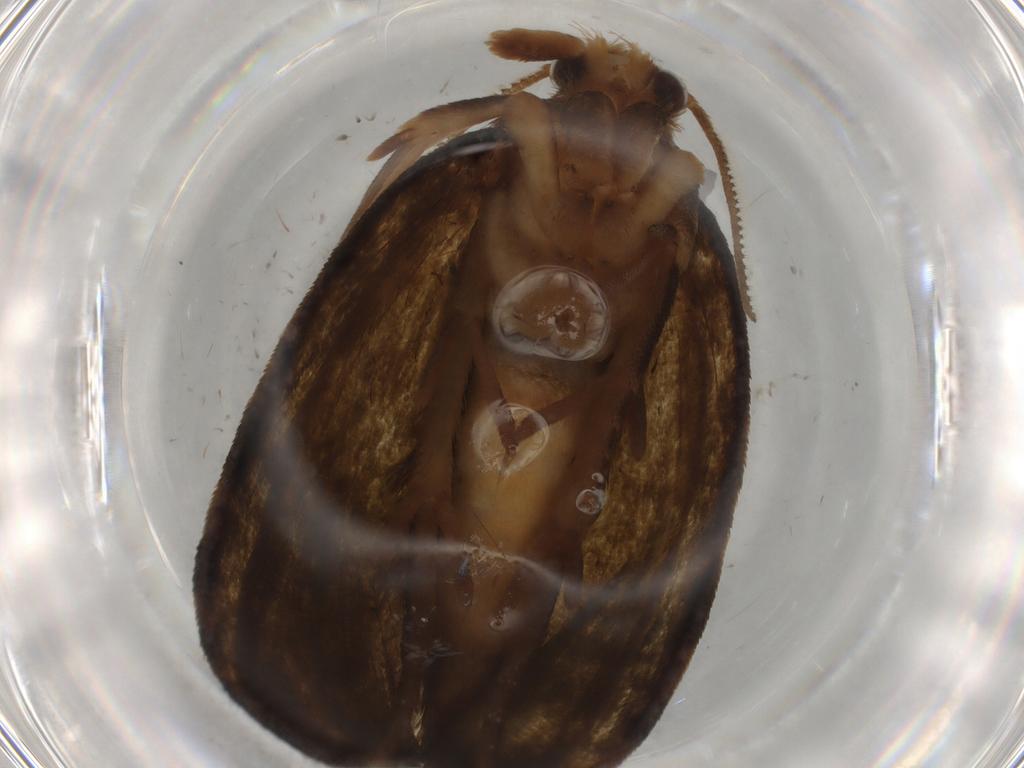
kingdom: Animalia
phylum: Arthropoda
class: Insecta
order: Lepidoptera
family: Geometridae
